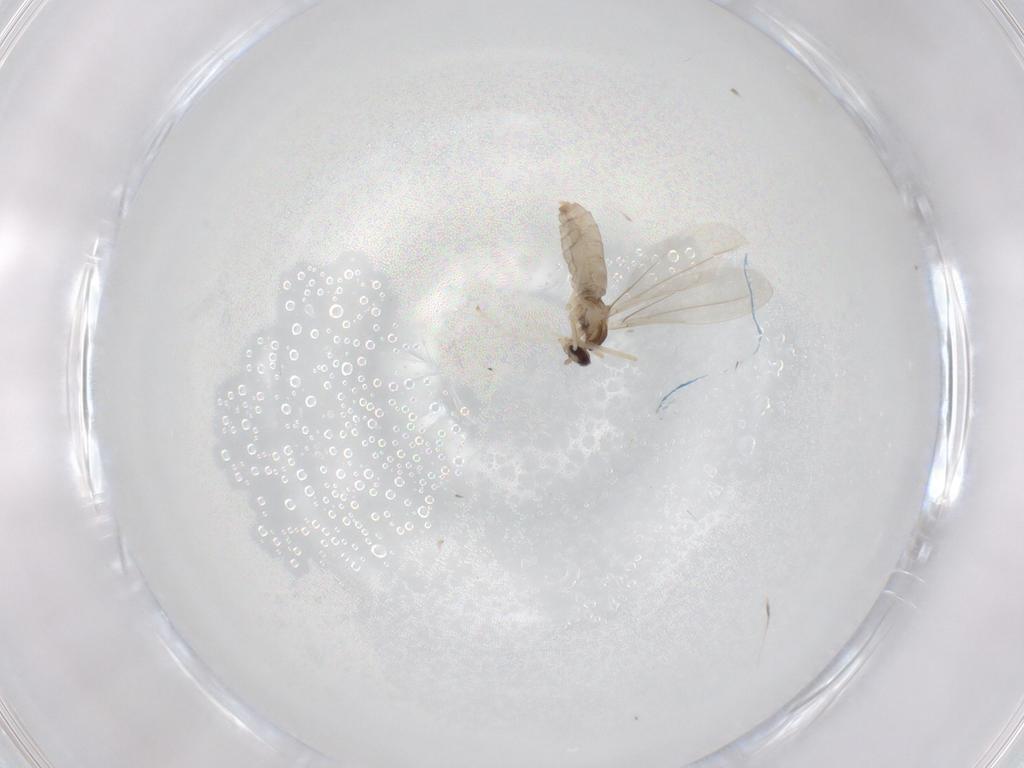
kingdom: Animalia
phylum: Arthropoda
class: Insecta
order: Diptera
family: Cecidomyiidae
